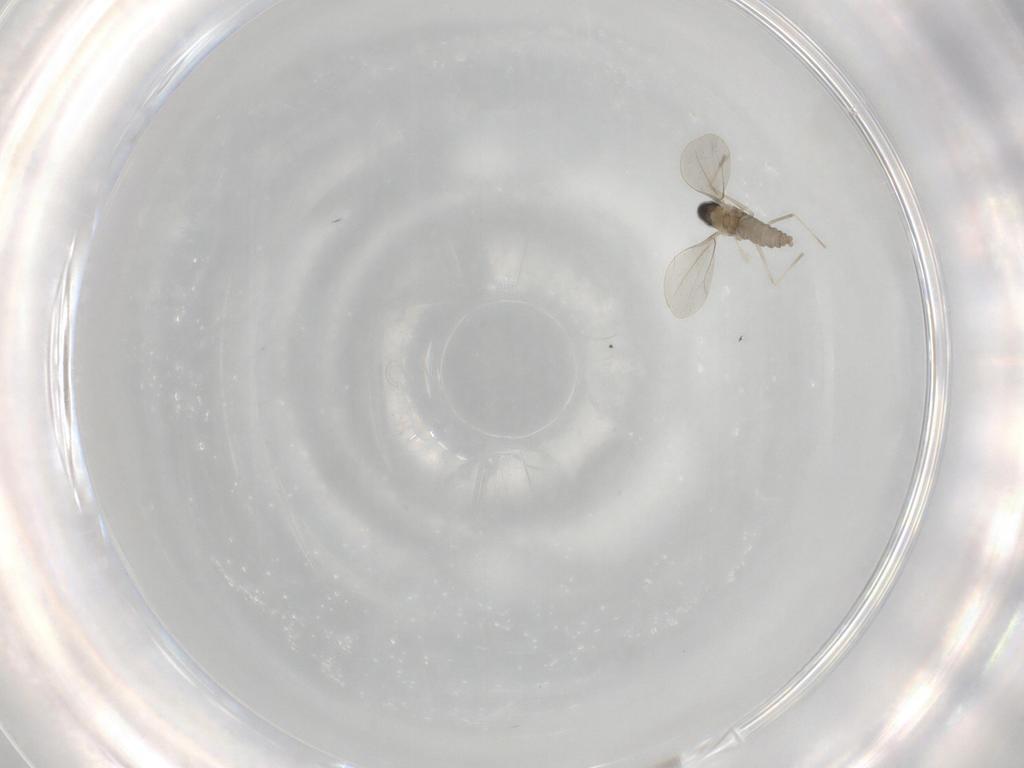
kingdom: Animalia
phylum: Arthropoda
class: Insecta
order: Diptera
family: Cecidomyiidae
